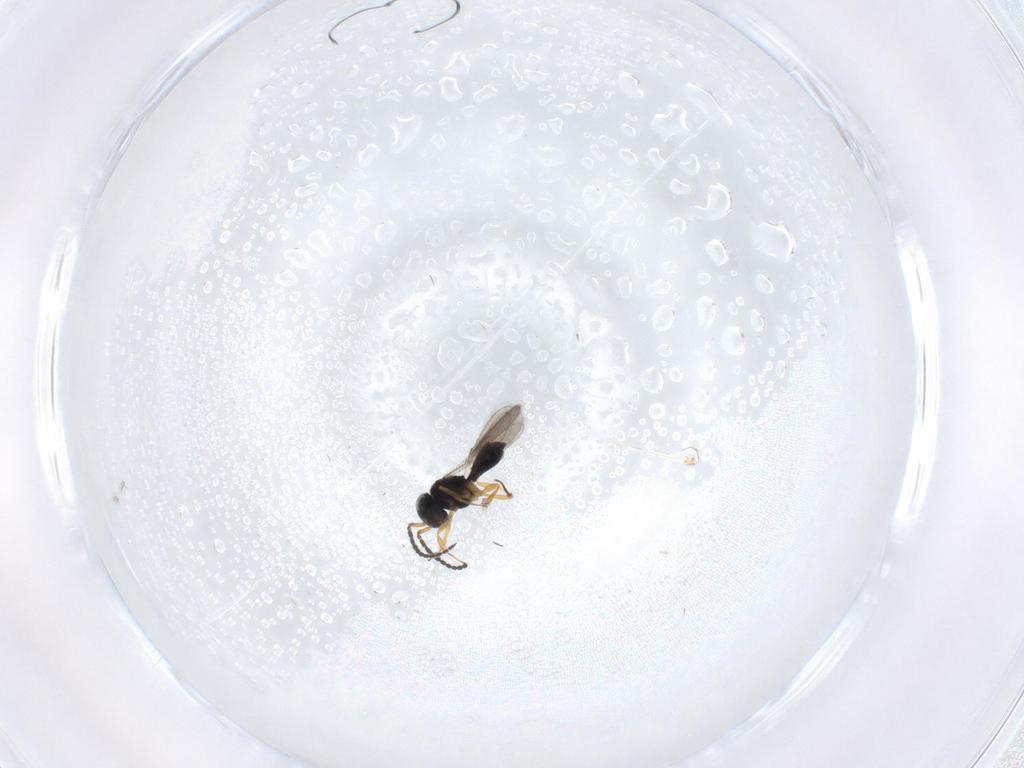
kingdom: Animalia
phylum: Arthropoda
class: Insecta
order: Hymenoptera
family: Scelionidae
